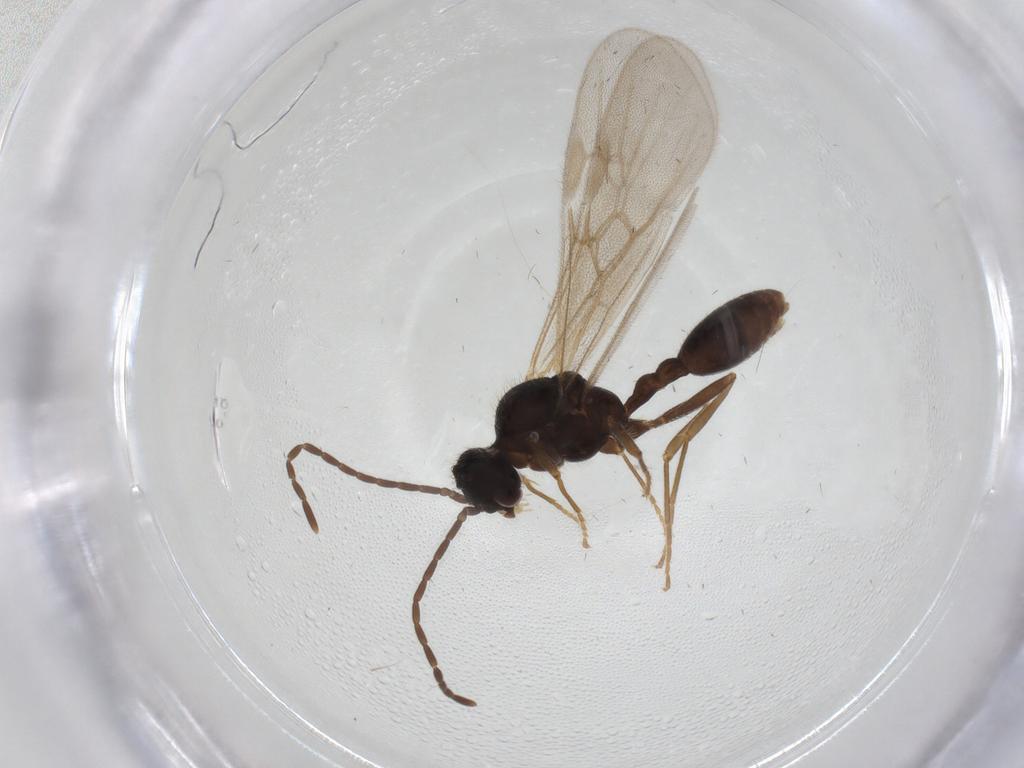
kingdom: Animalia
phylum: Arthropoda
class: Insecta
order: Hymenoptera
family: Formicidae
